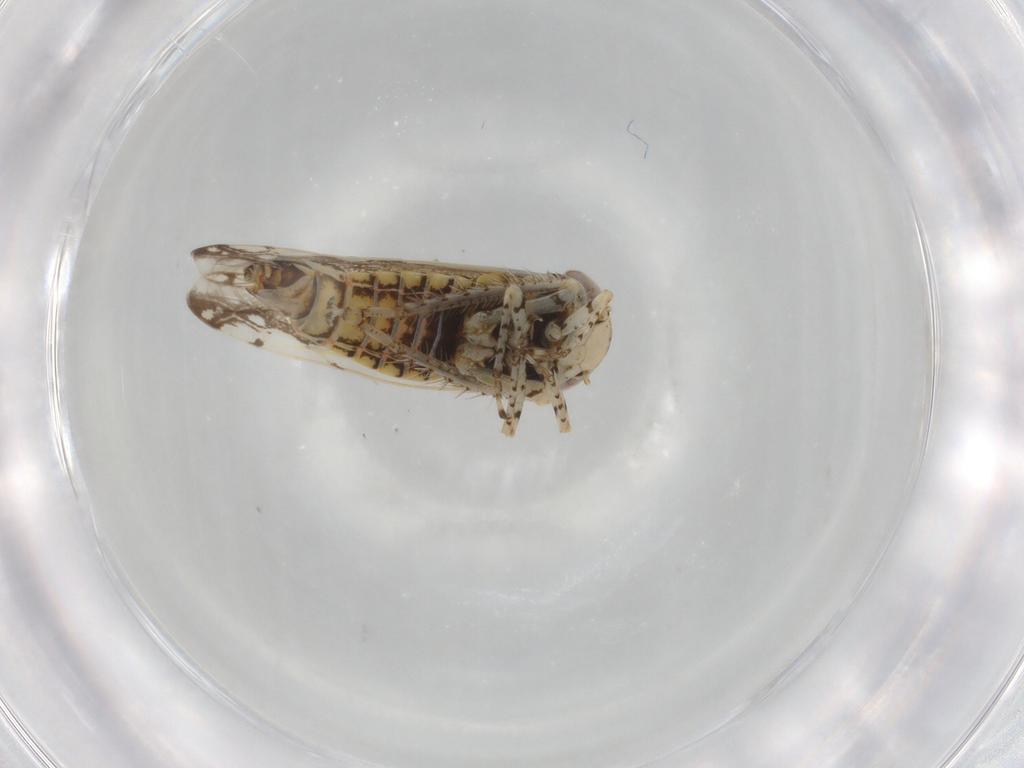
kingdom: Animalia
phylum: Arthropoda
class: Insecta
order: Hemiptera
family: Cicadellidae
